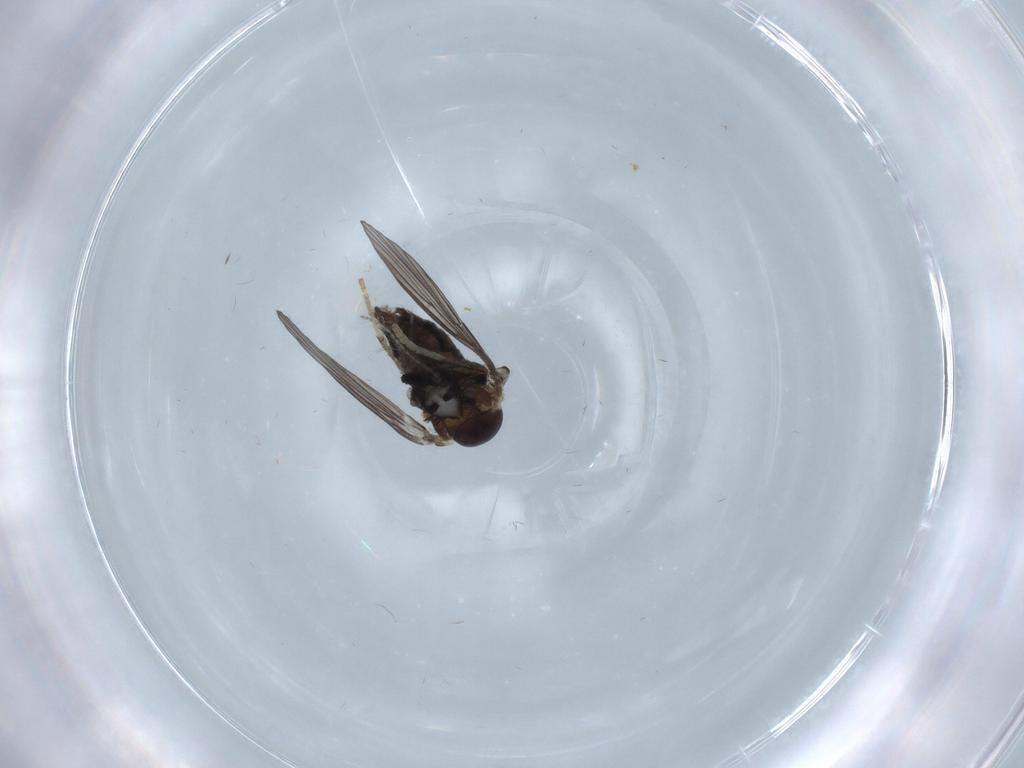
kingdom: Animalia
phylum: Arthropoda
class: Insecta
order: Diptera
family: Psychodidae
